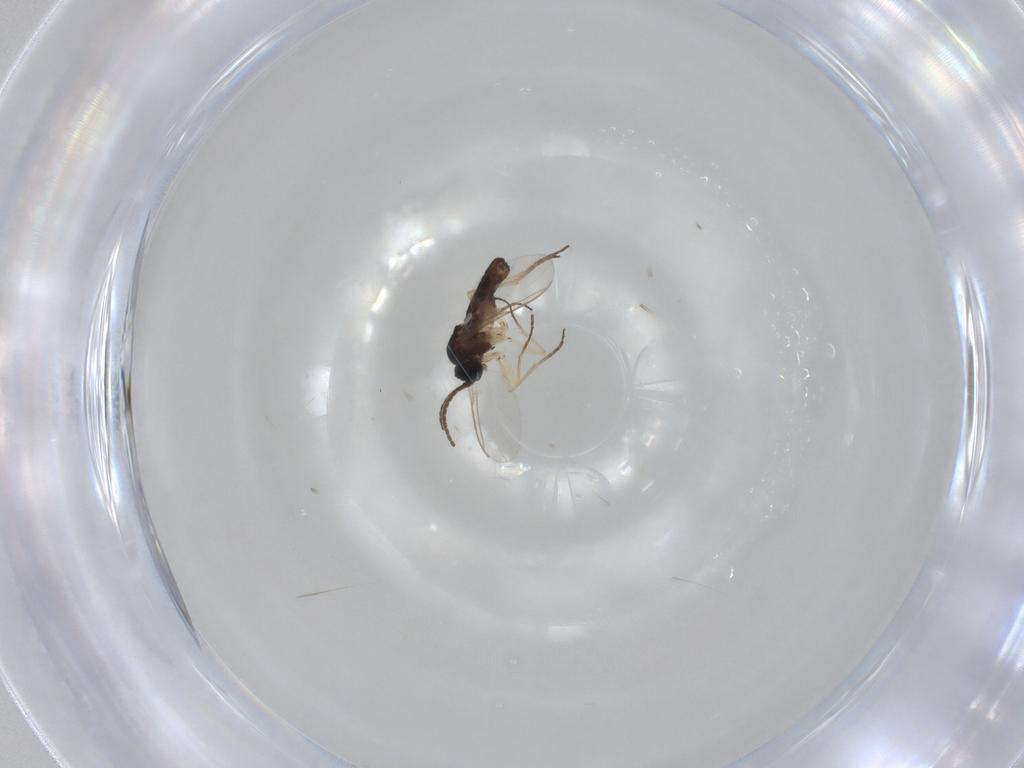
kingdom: Animalia
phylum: Arthropoda
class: Insecta
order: Diptera
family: Sciaridae
